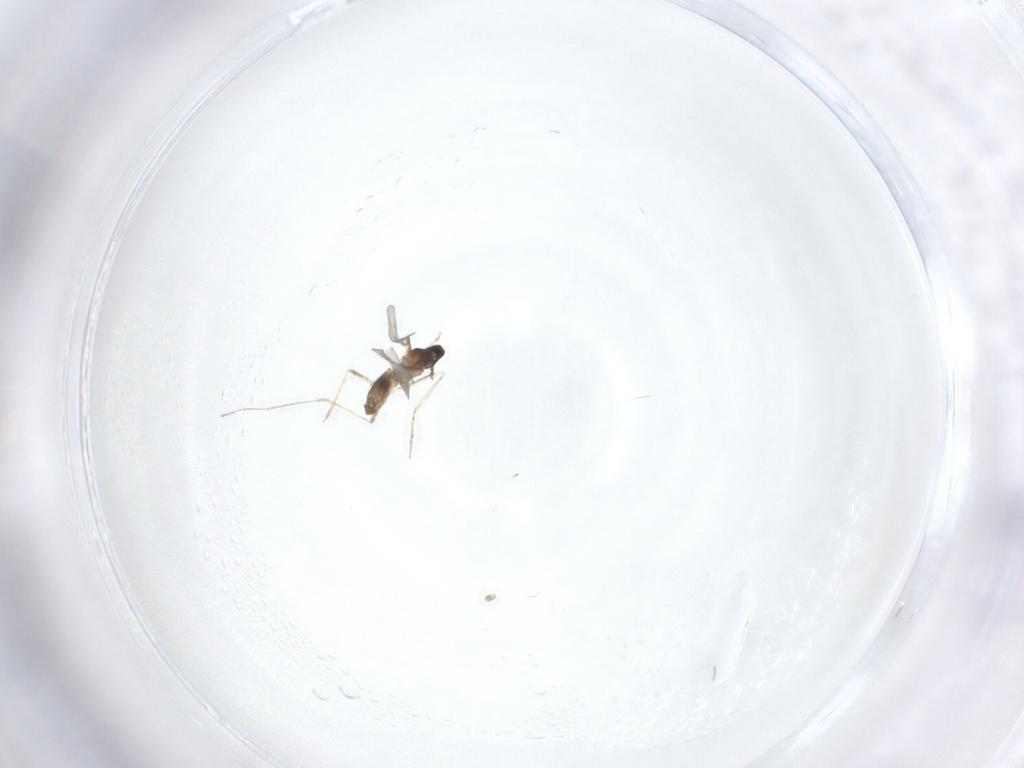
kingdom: Animalia
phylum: Arthropoda
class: Insecta
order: Diptera
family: Cecidomyiidae
